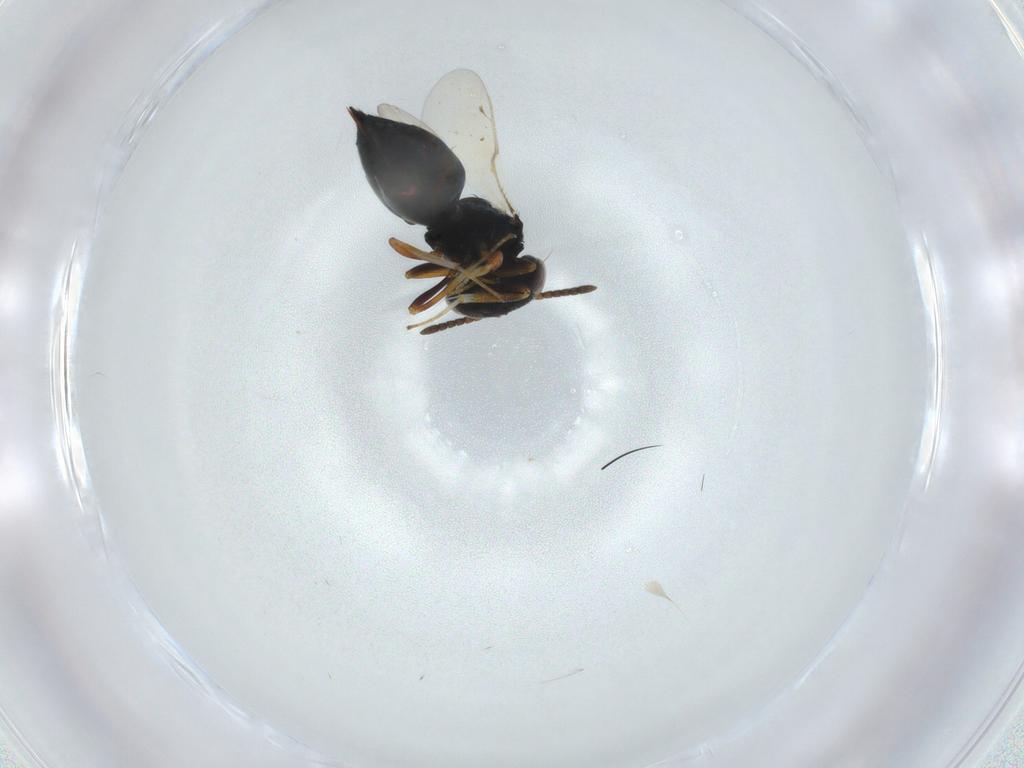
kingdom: Animalia
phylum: Arthropoda
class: Insecta
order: Hymenoptera
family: Pteromalidae
